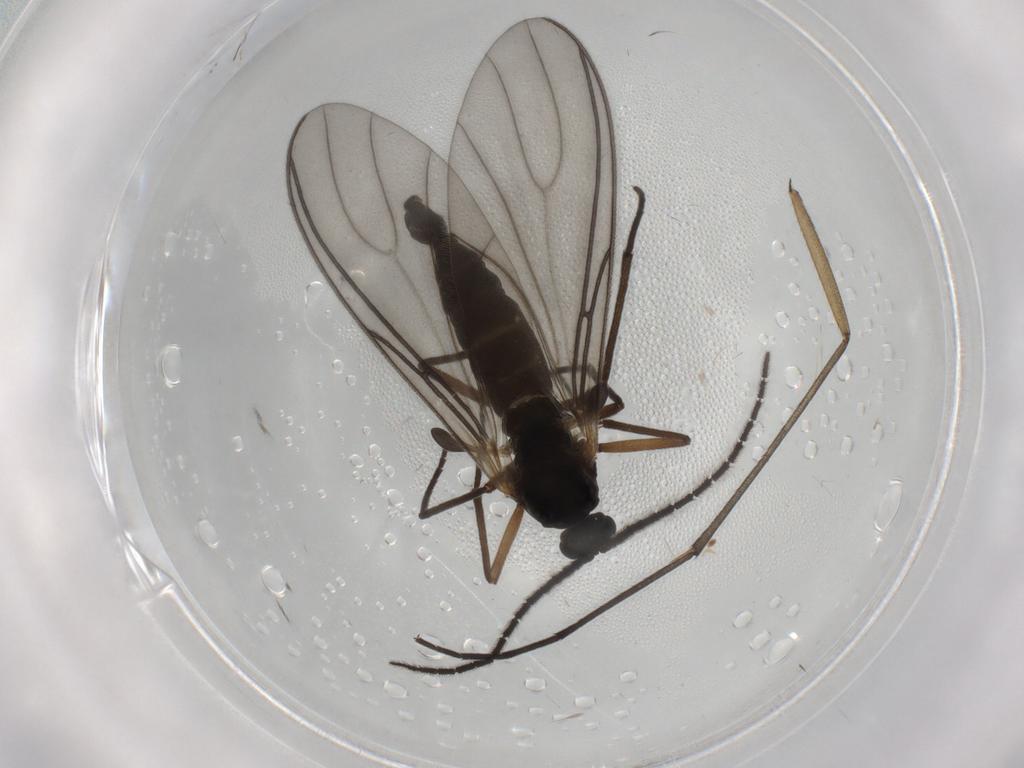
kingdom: Animalia
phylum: Arthropoda
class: Insecta
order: Diptera
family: Sciaridae
